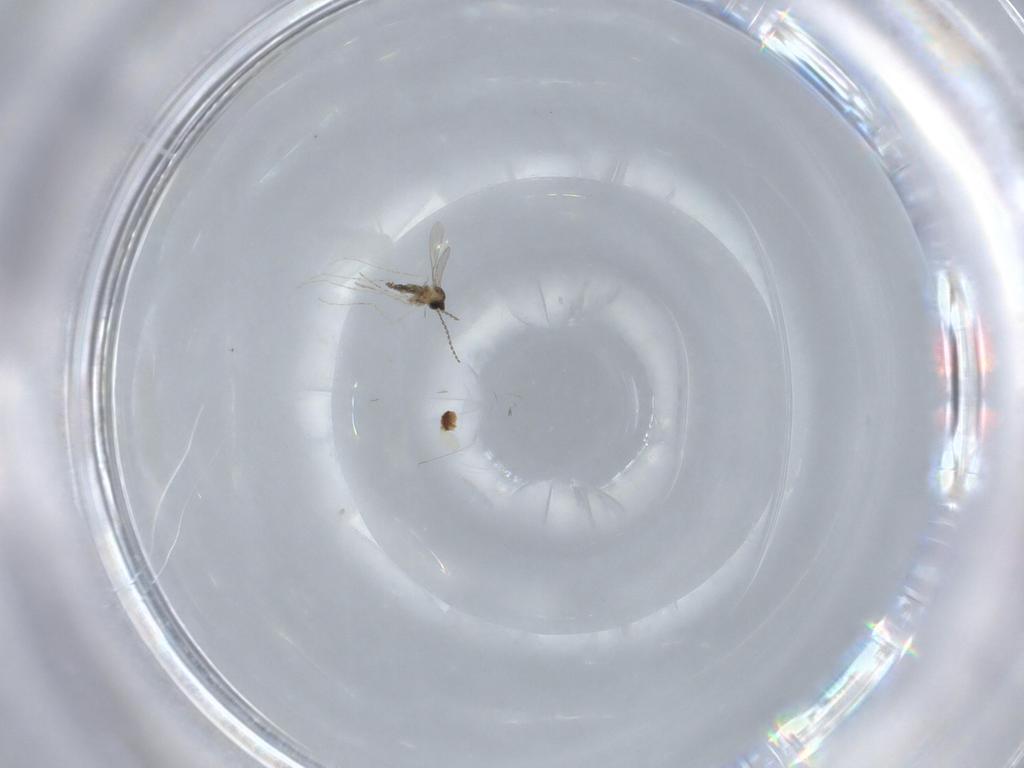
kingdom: Animalia
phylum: Arthropoda
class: Insecta
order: Diptera
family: Cecidomyiidae
